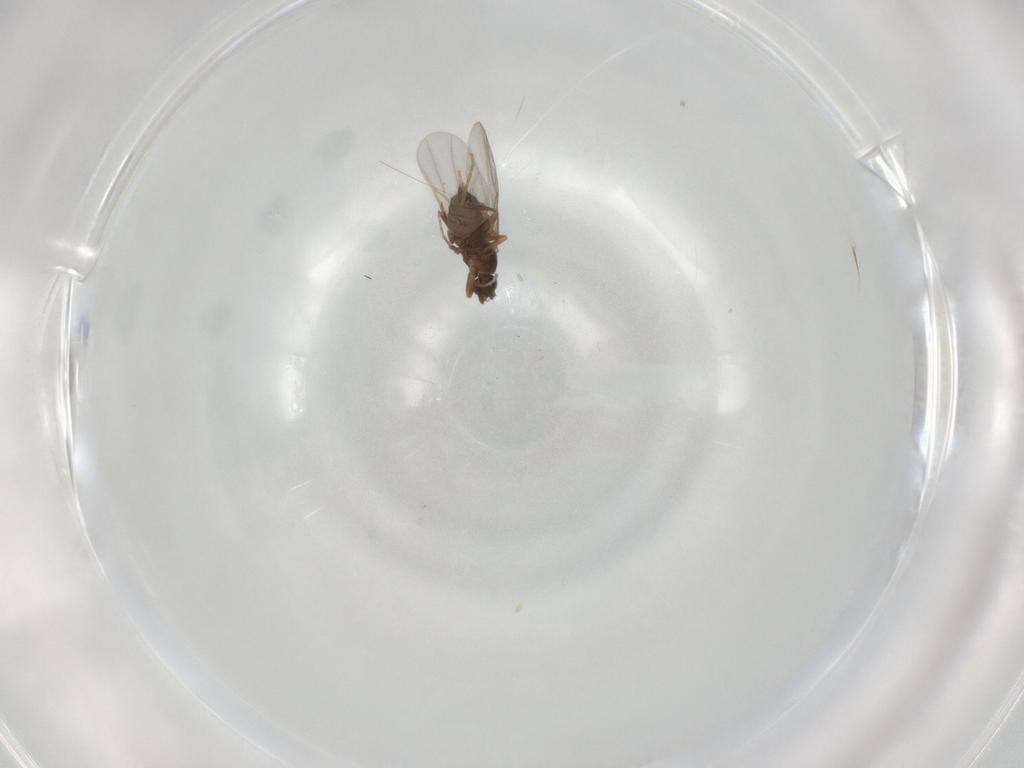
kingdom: Animalia
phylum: Arthropoda
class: Insecta
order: Diptera
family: Phoridae
